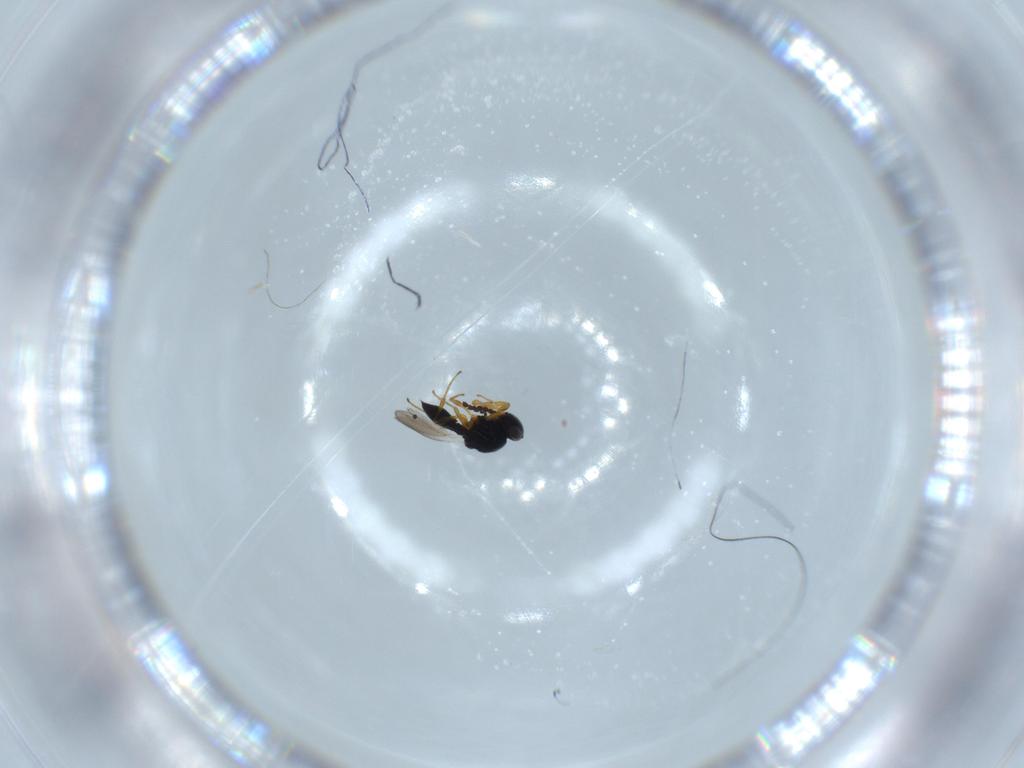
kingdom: Animalia
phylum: Arthropoda
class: Insecta
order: Hymenoptera
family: Platygastridae
